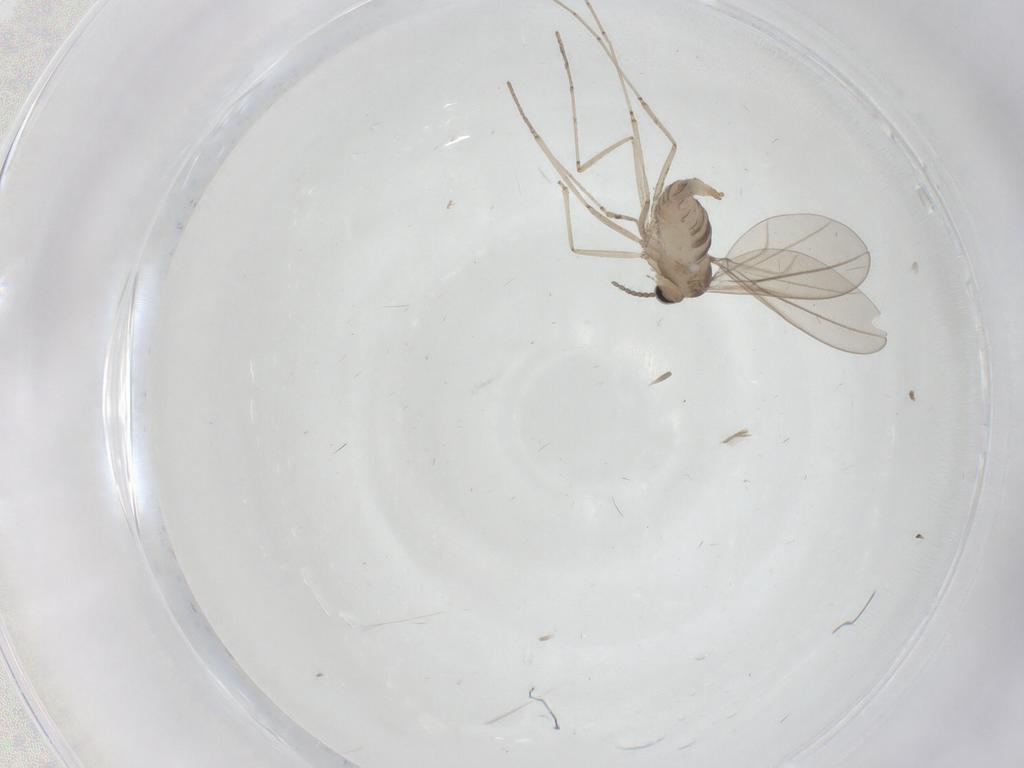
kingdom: Animalia
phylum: Arthropoda
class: Insecta
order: Diptera
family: Cecidomyiidae
